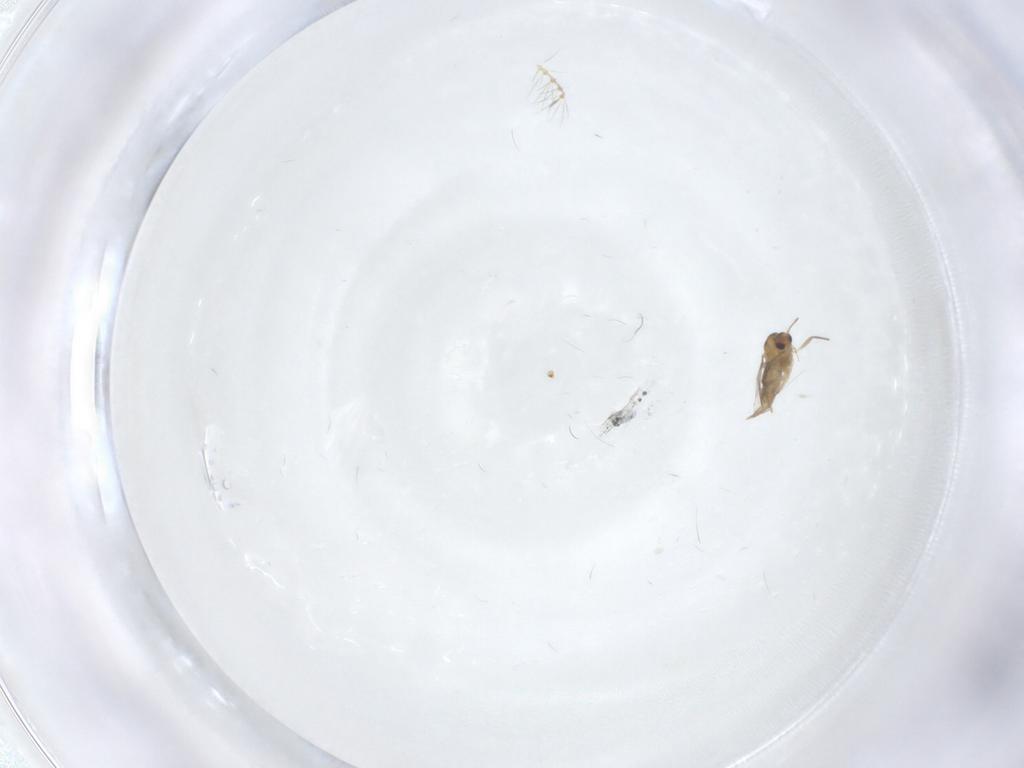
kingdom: Animalia
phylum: Arthropoda
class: Insecta
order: Diptera
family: Chironomidae
